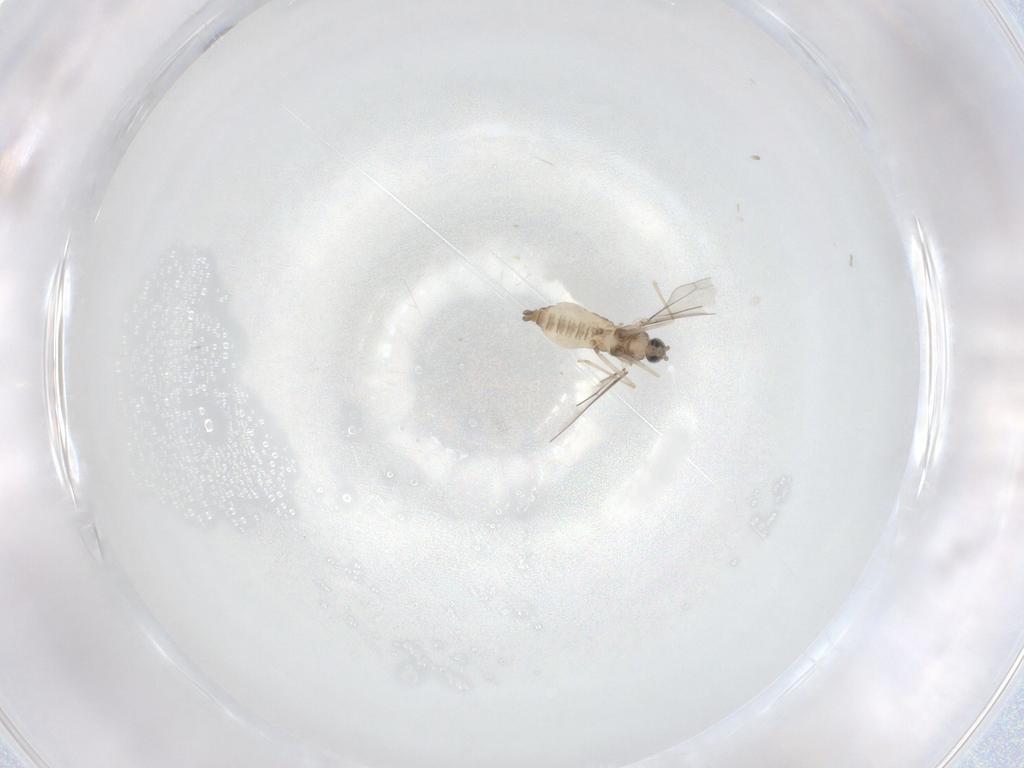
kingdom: Animalia
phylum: Arthropoda
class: Insecta
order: Diptera
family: Cecidomyiidae
